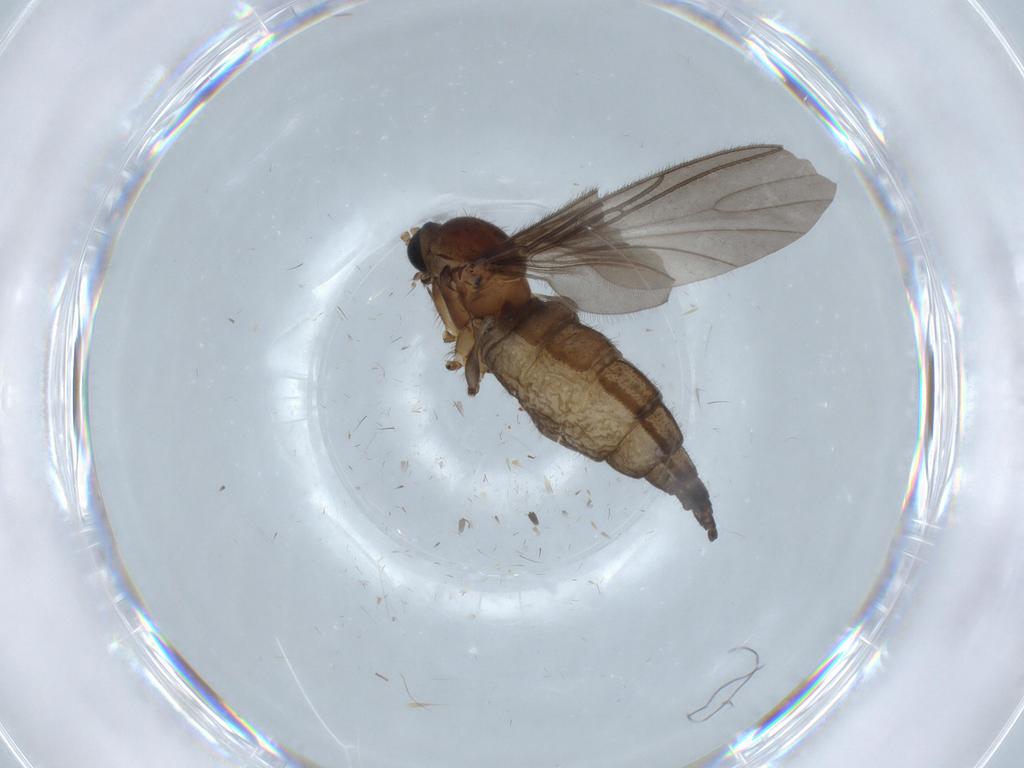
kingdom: Animalia
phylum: Arthropoda
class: Insecta
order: Diptera
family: Sciaridae
